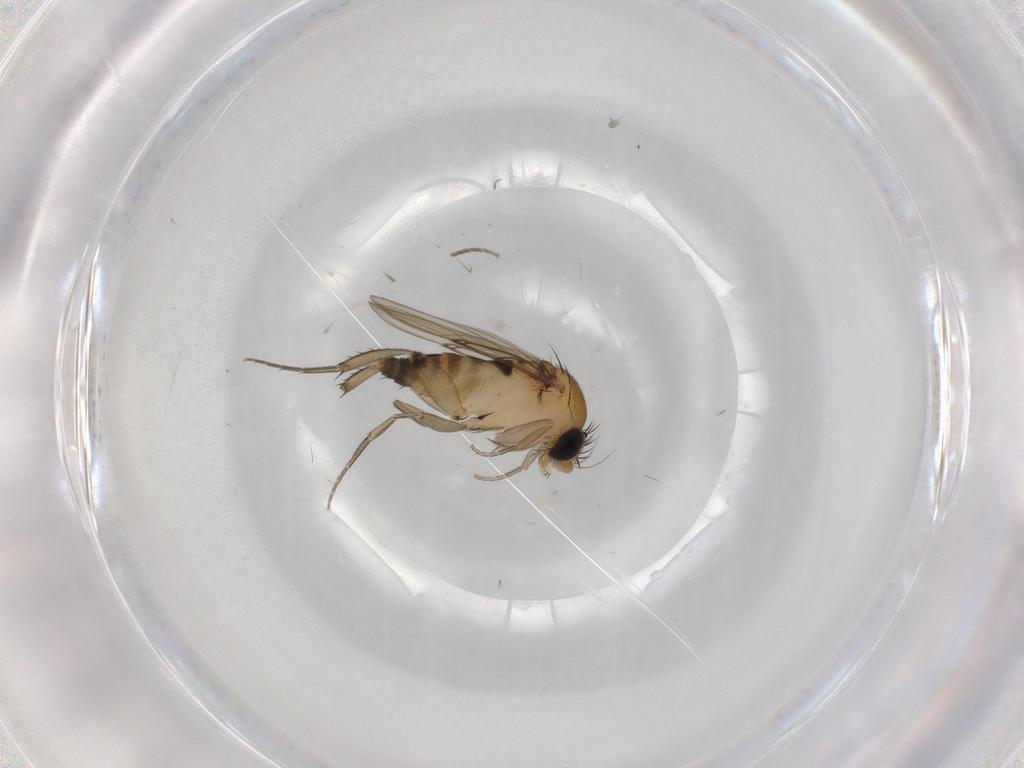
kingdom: Animalia
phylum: Arthropoda
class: Insecta
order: Diptera
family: Phoridae
